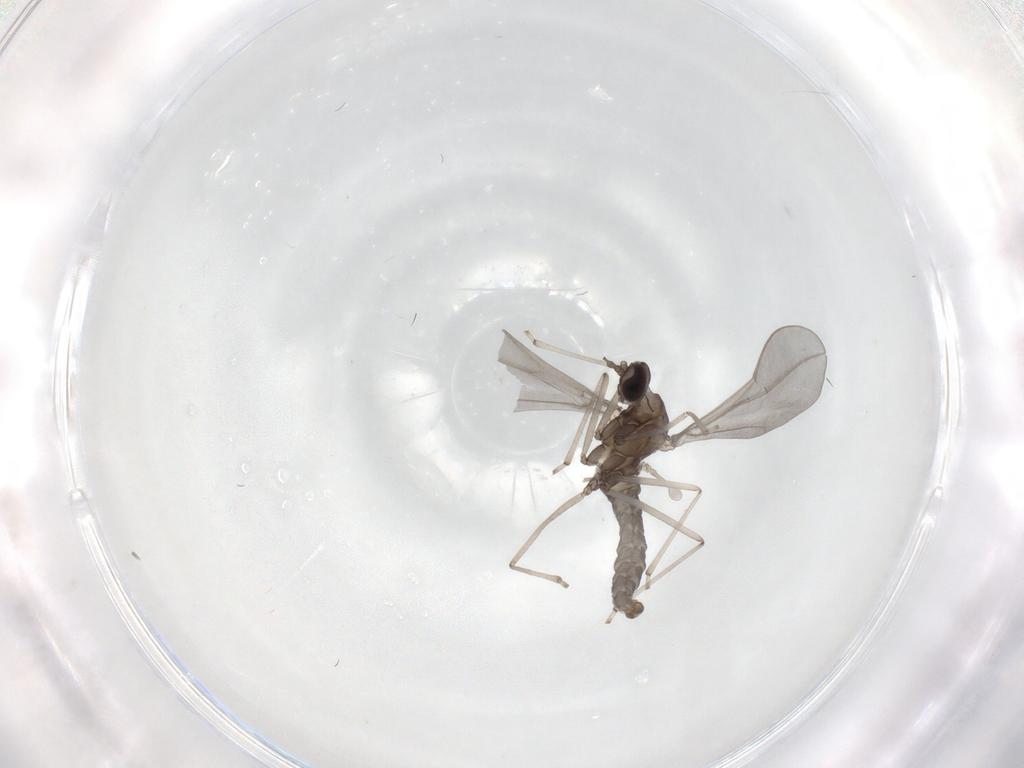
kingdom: Animalia
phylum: Arthropoda
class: Insecta
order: Diptera
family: Cecidomyiidae
